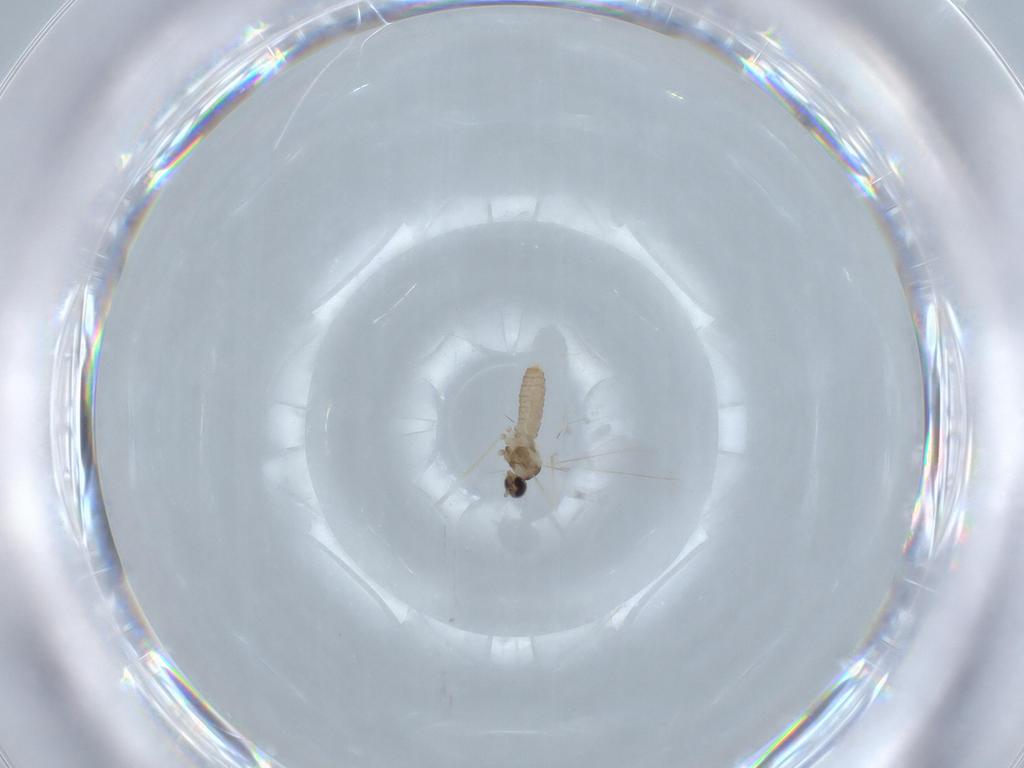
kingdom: Animalia
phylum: Arthropoda
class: Insecta
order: Diptera
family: Cecidomyiidae
